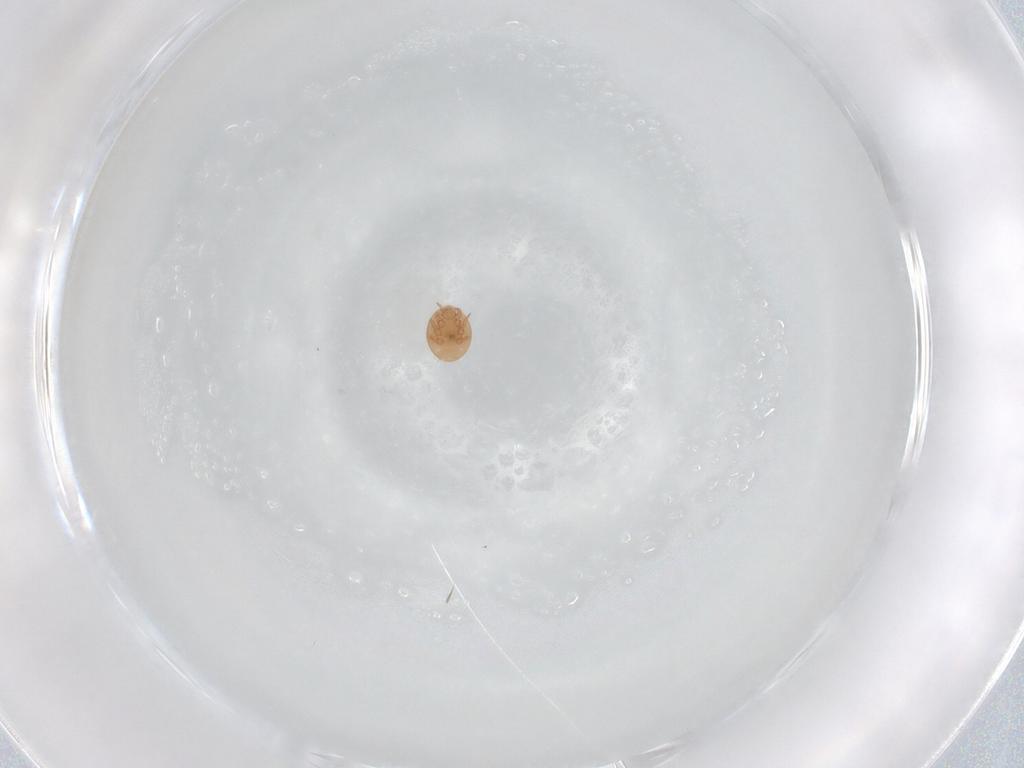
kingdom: Animalia
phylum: Arthropoda
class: Arachnida
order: Mesostigmata
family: Trematuridae
